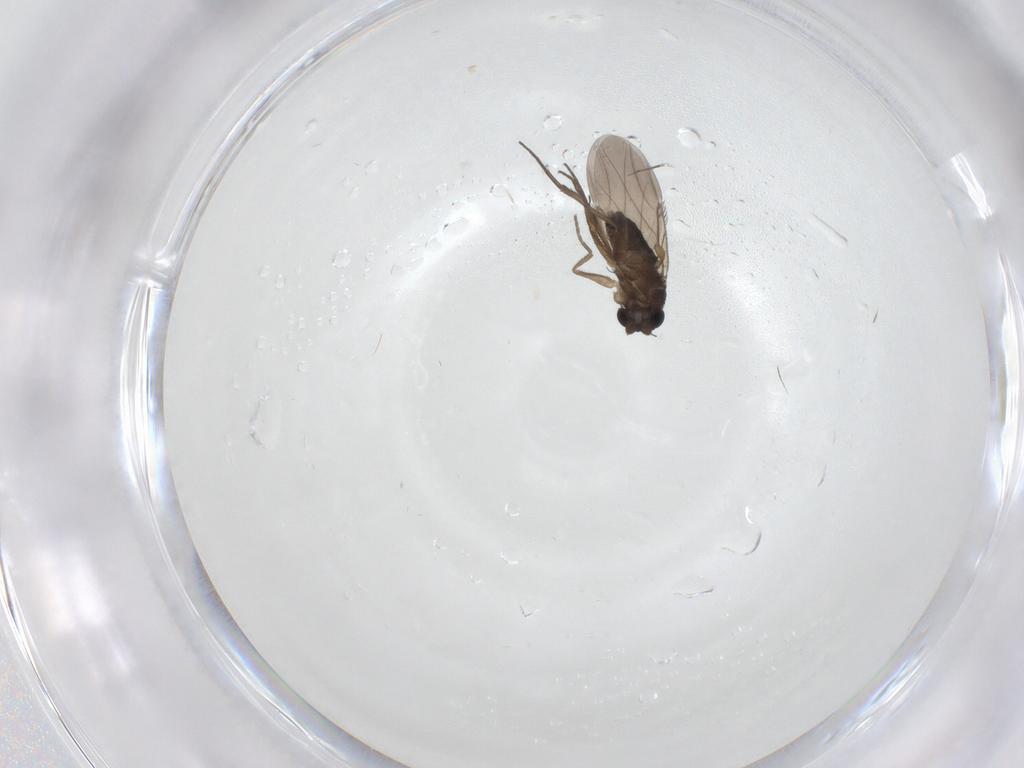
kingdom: Animalia
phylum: Arthropoda
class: Insecta
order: Diptera
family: Phoridae
